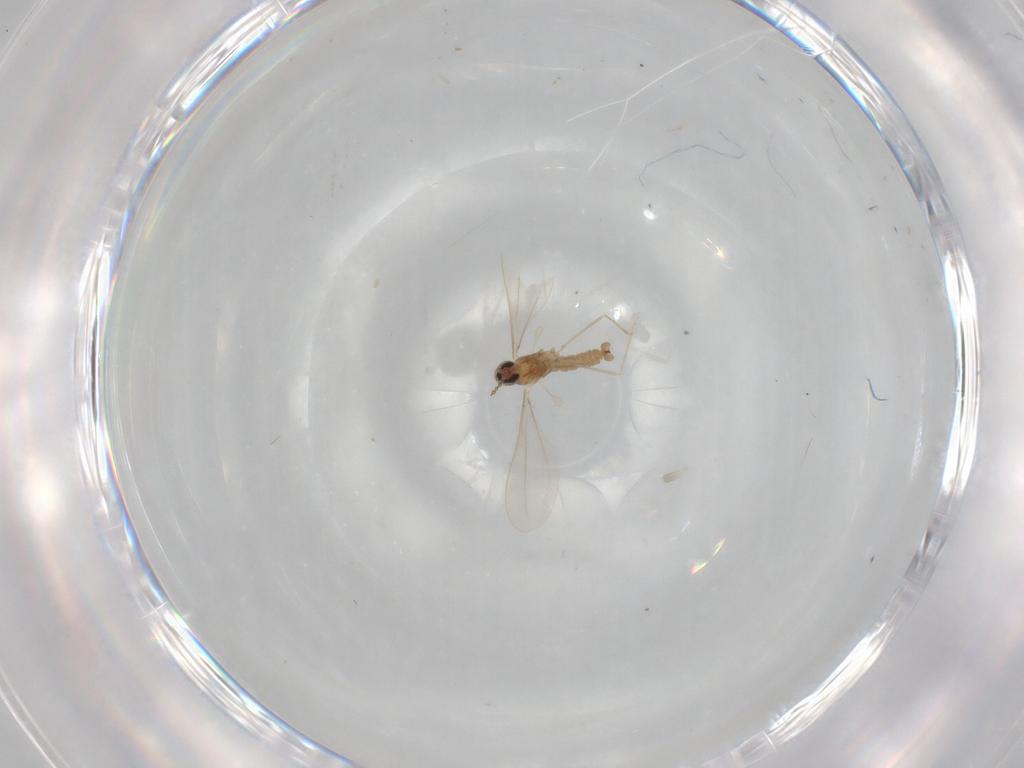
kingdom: Animalia
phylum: Arthropoda
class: Insecta
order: Diptera
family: Cecidomyiidae
